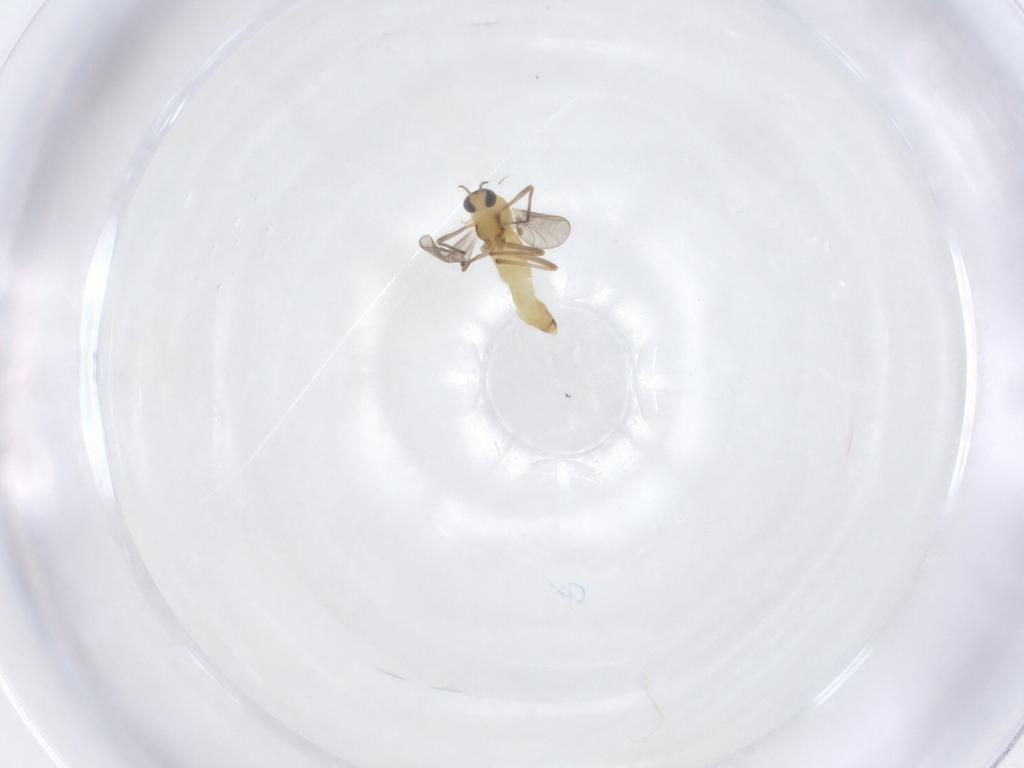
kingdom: Animalia
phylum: Arthropoda
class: Insecta
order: Diptera
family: Chironomidae
